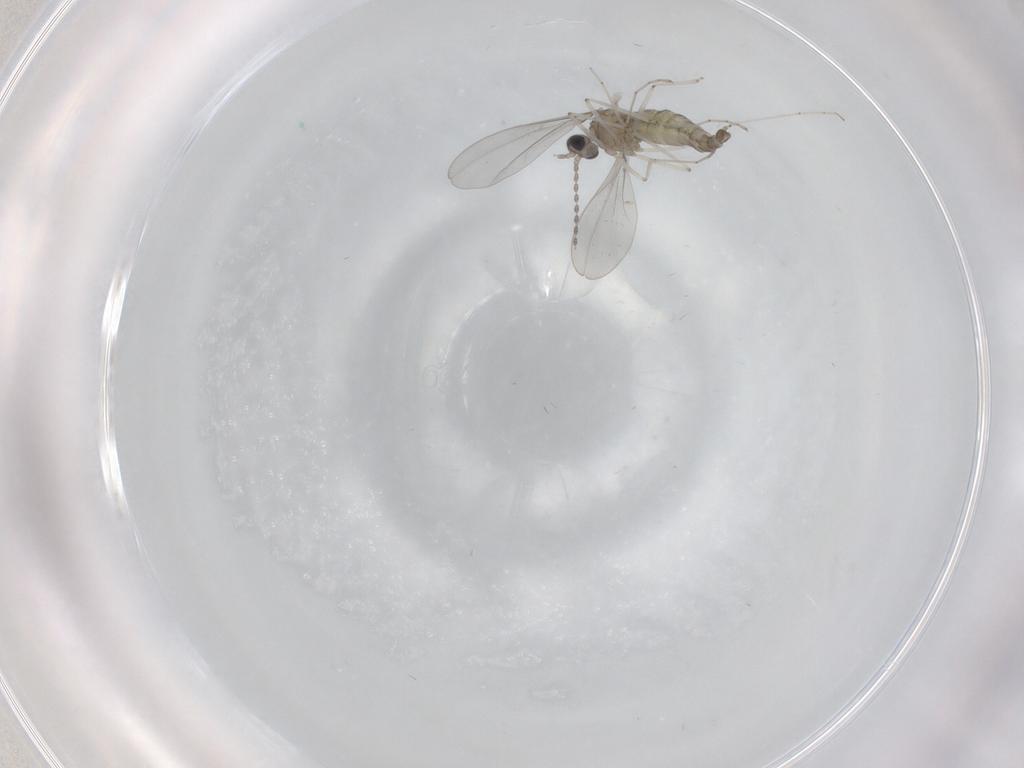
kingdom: Animalia
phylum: Arthropoda
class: Insecta
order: Diptera
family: Cecidomyiidae
